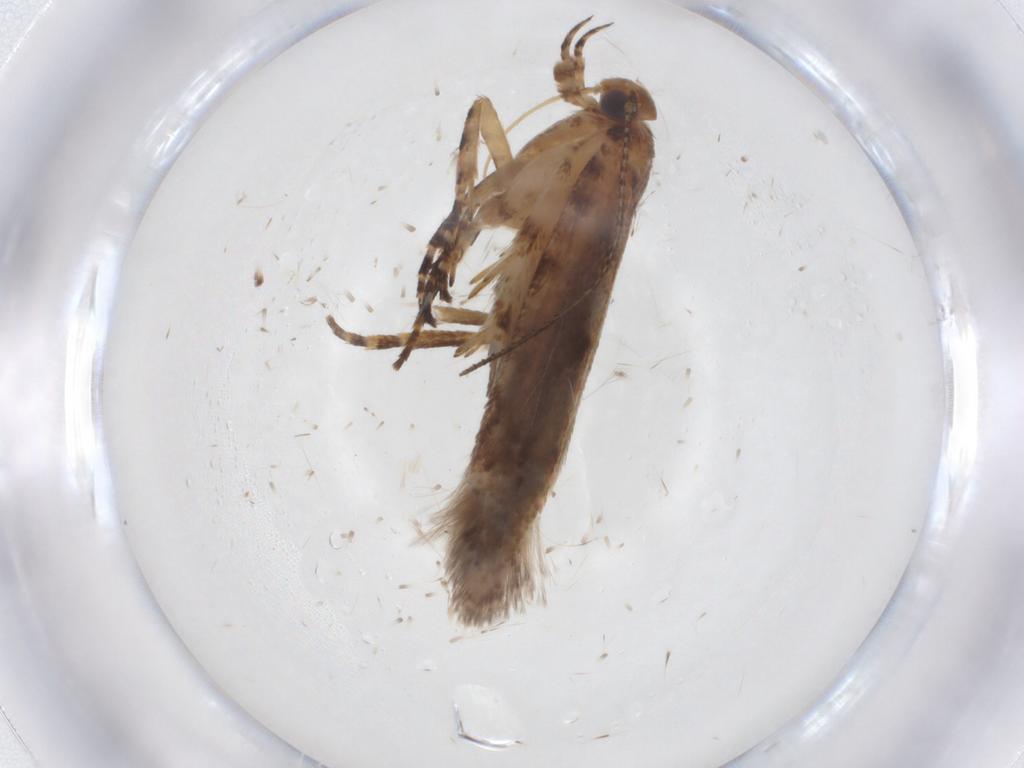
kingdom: Animalia
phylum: Arthropoda
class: Insecta
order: Lepidoptera
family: Gelechiidae
